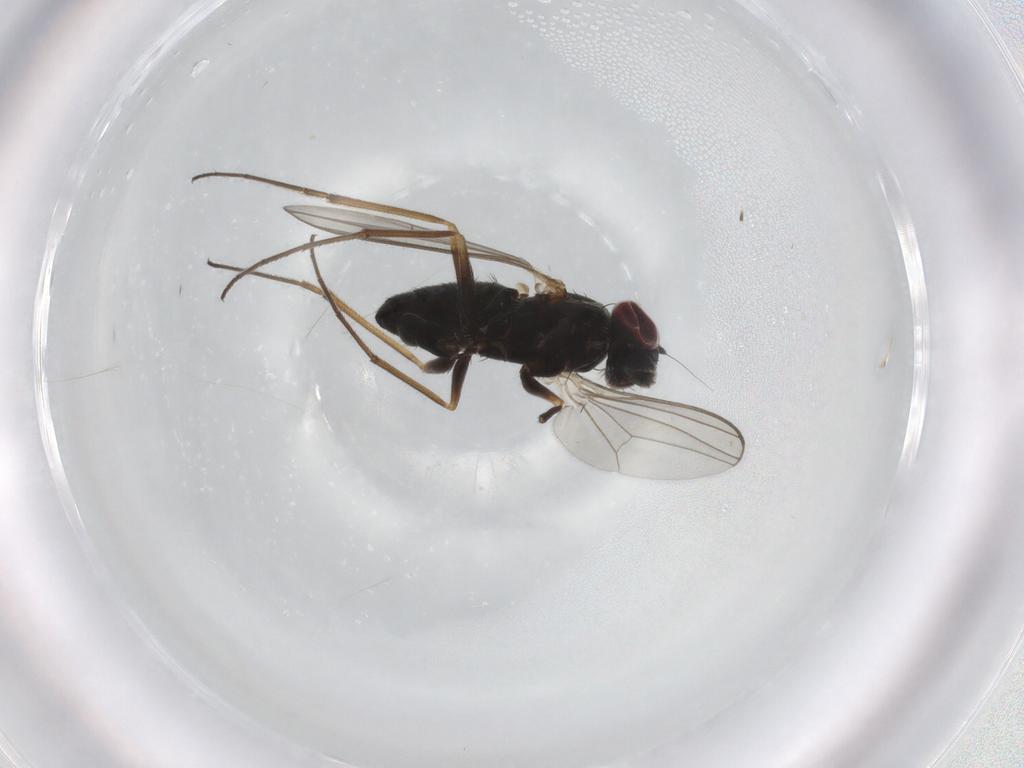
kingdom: Animalia
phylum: Arthropoda
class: Insecta
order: Diptera
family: Dolichopodidae
